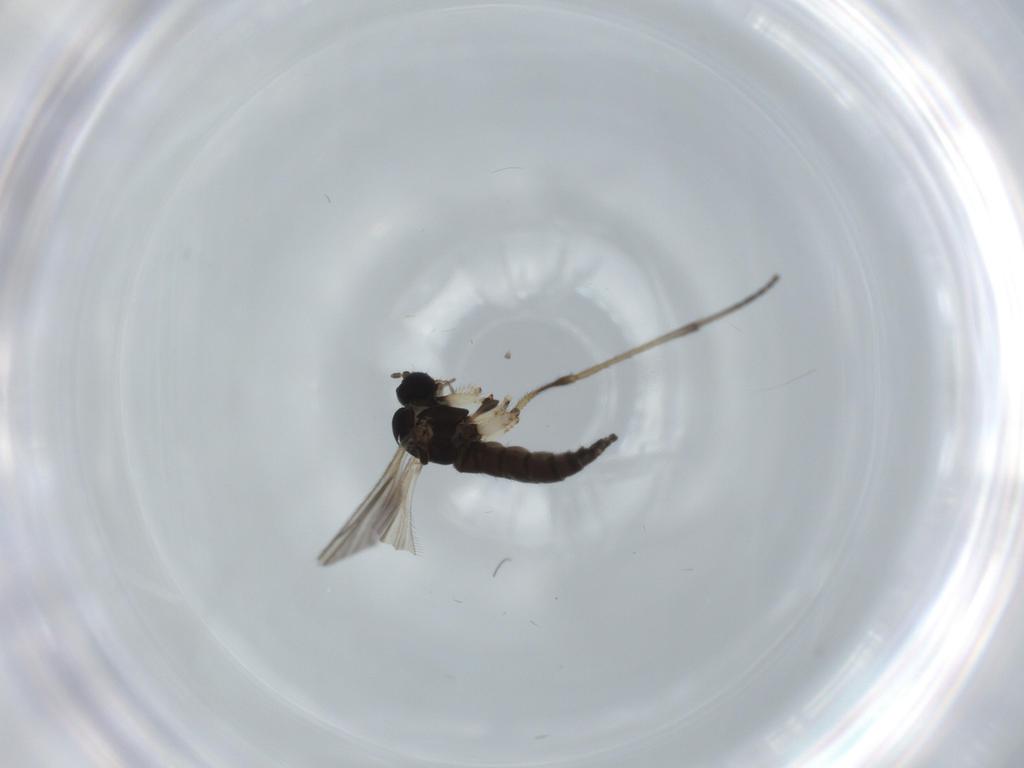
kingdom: Animalia
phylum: Arthropoda
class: Insecta
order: Diptera
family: Sciaridae
